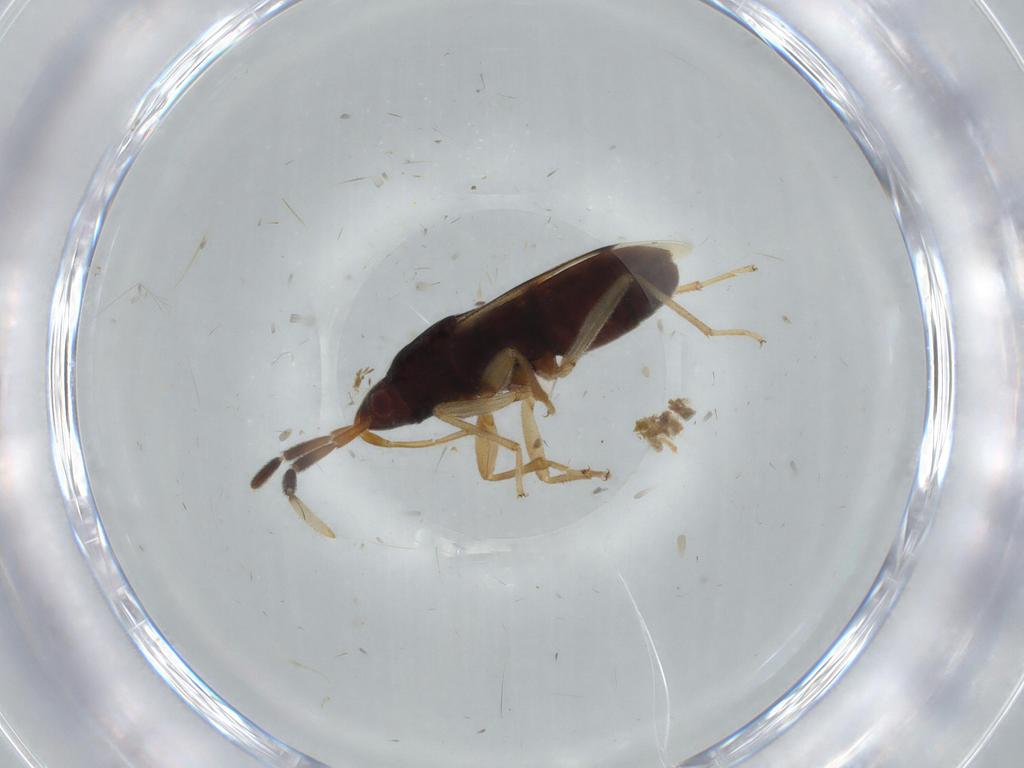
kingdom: Animalia
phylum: Arthropoda
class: Insecta
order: Hemiptera
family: Rhyparochromidae
